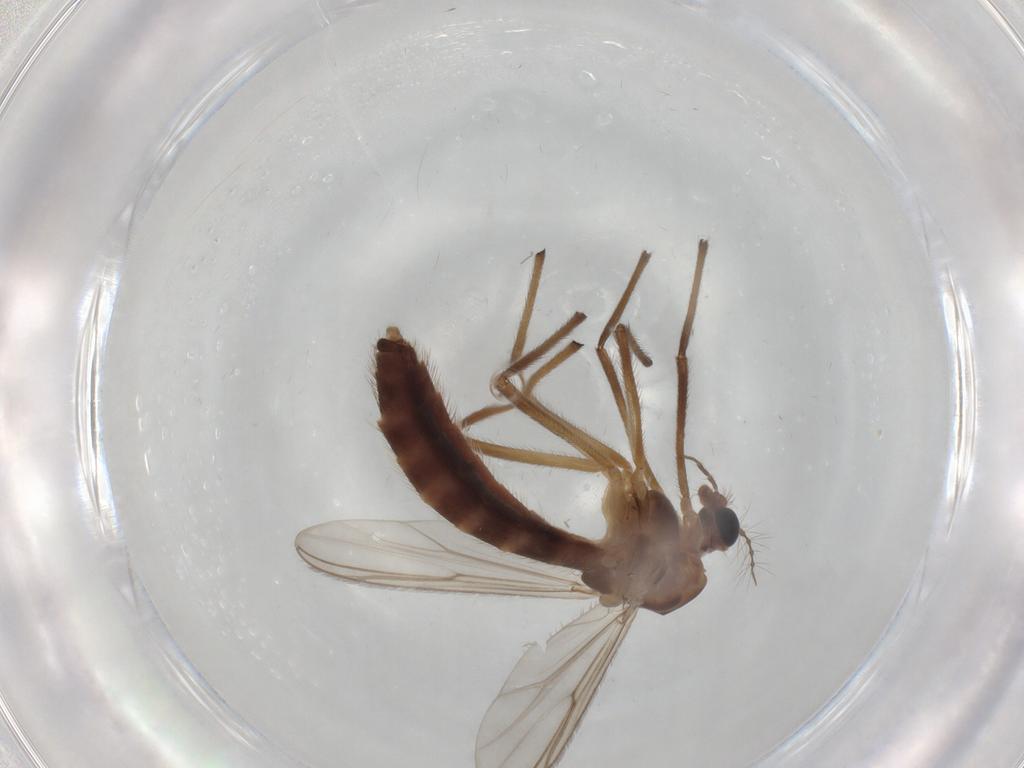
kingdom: Animalia
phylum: Arthropoda
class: Insecta
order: Diptera
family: Chironomidae
